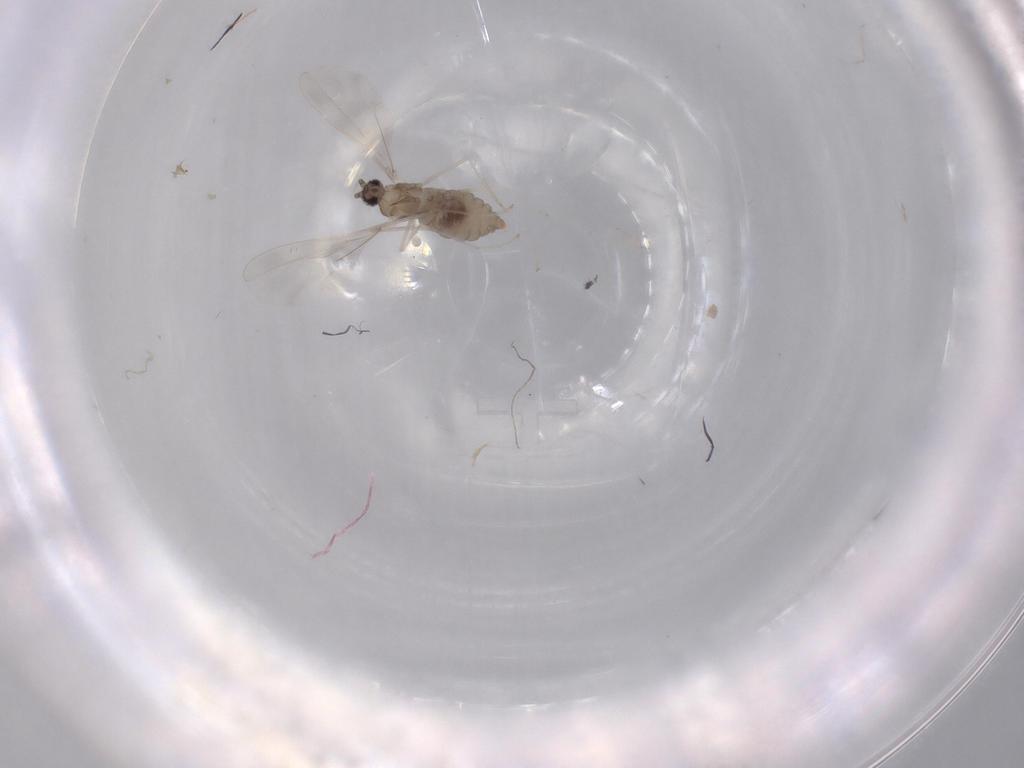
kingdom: Animalia
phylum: Arthropoda
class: Insecta
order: Diptera
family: Cecidomyiidae
